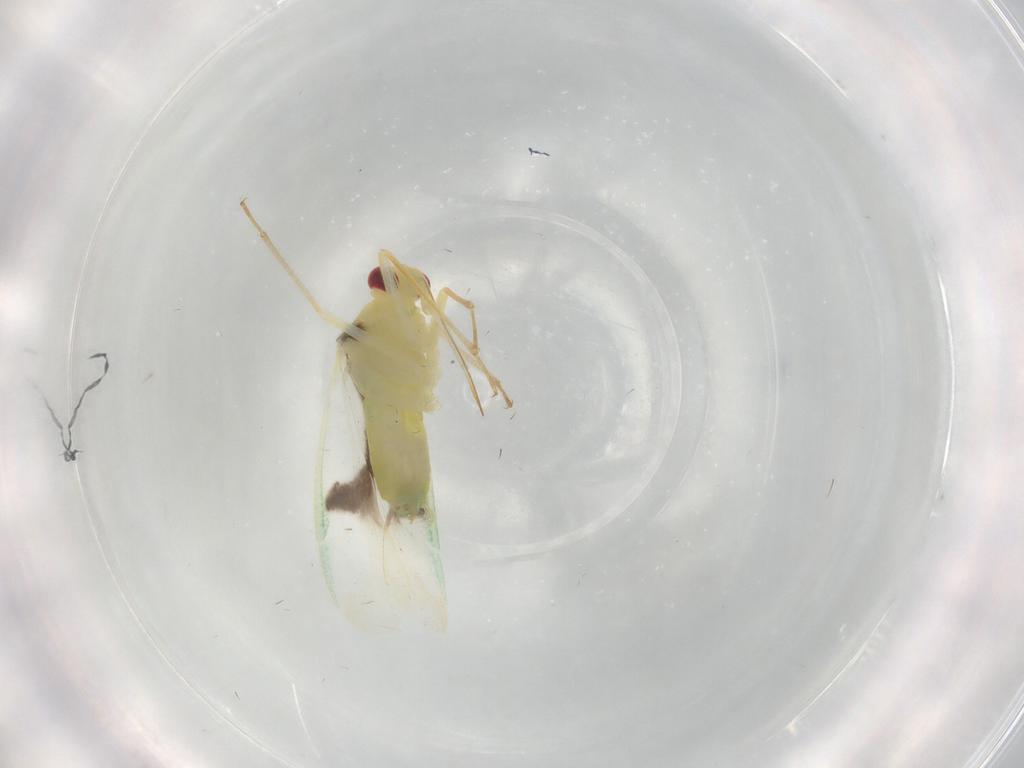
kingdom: Animalia
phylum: Arthropoda
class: Insecta
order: Hemiptera
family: Miridae
